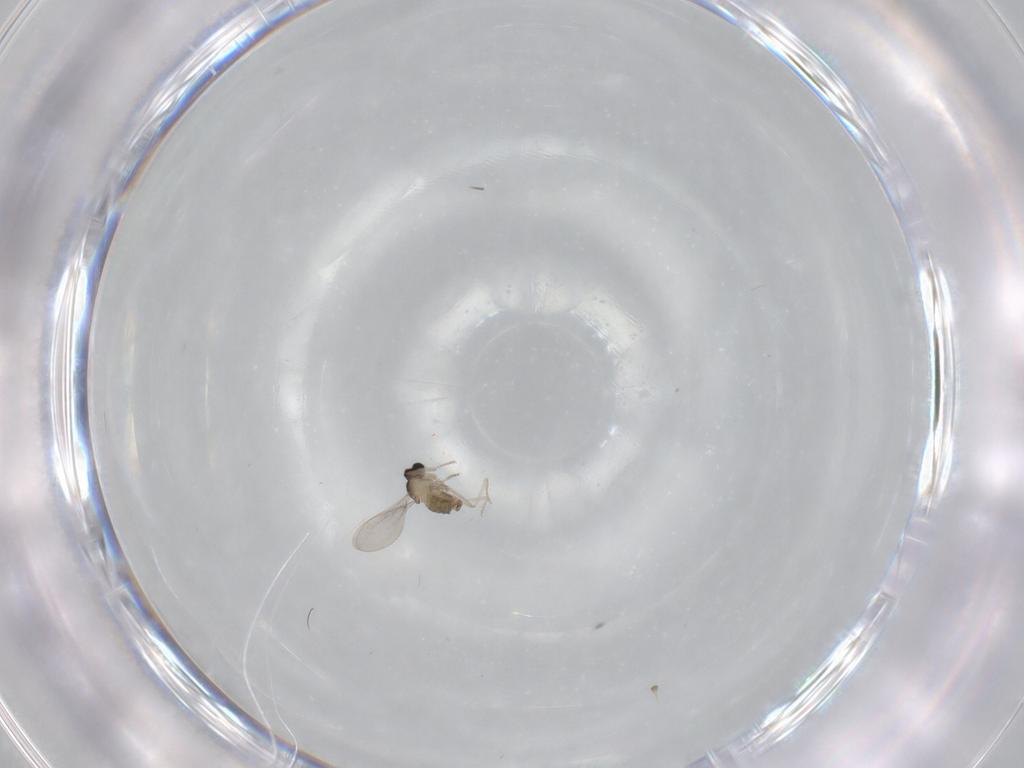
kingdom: Animalia
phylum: Arthropoda
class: Insecta
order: Diptera
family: Cecidomyiidae
